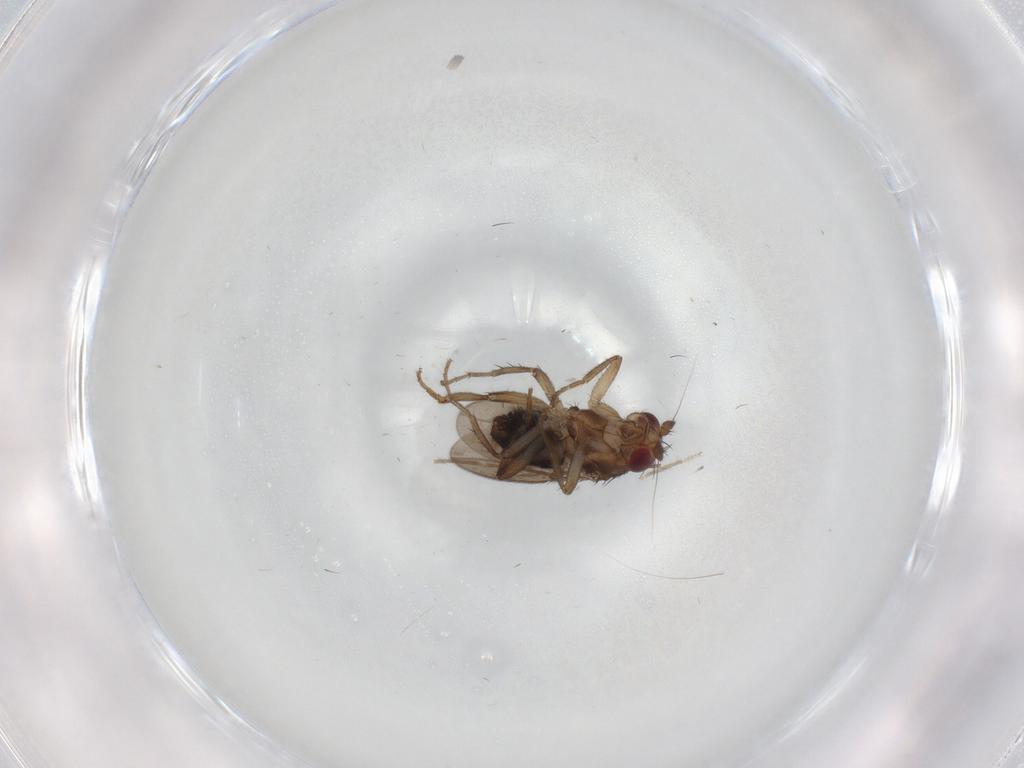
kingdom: Animalia
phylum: Arthropoda
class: Insecta
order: Diptera
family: Sphaeroceridae
